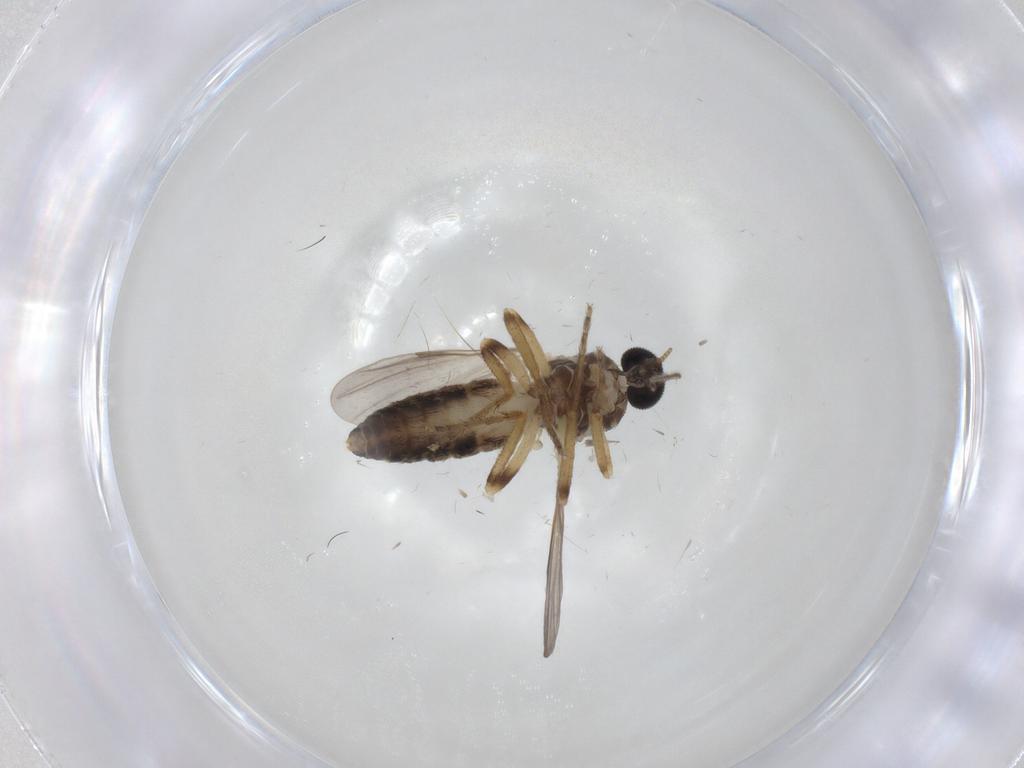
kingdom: Animalia
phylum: Arthropoda
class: Insecta
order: Diptera
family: Ceratopogonidae
